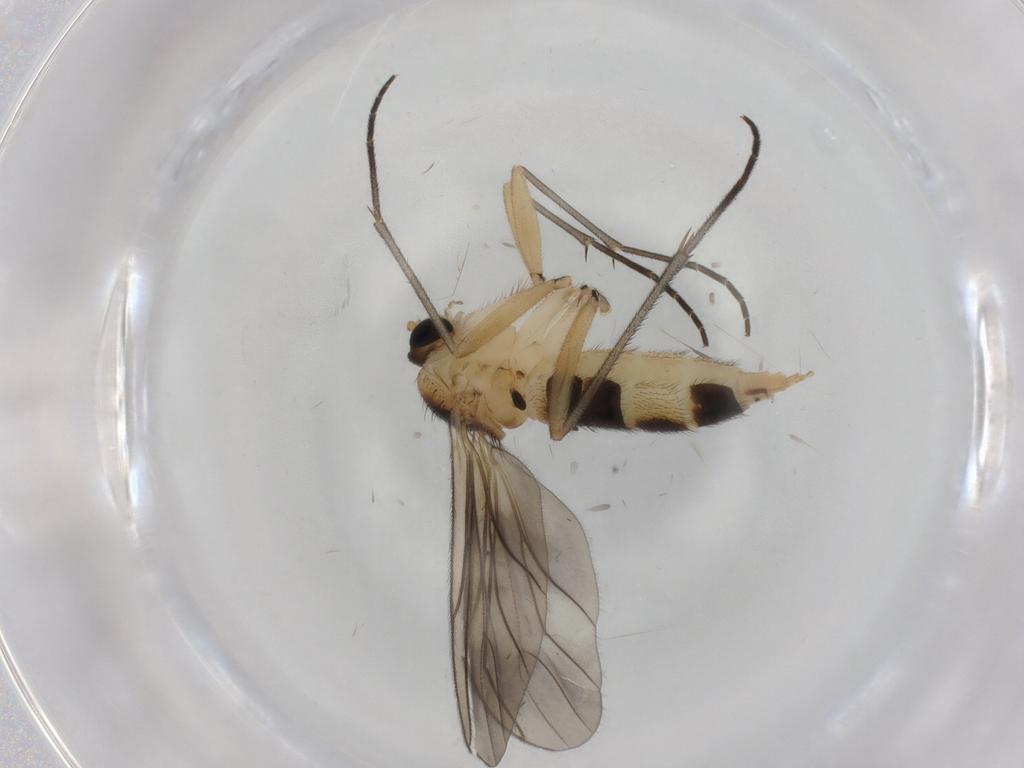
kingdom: Animalia
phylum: Arthropoda
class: Insecta
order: Diptera
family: Sciaridae
